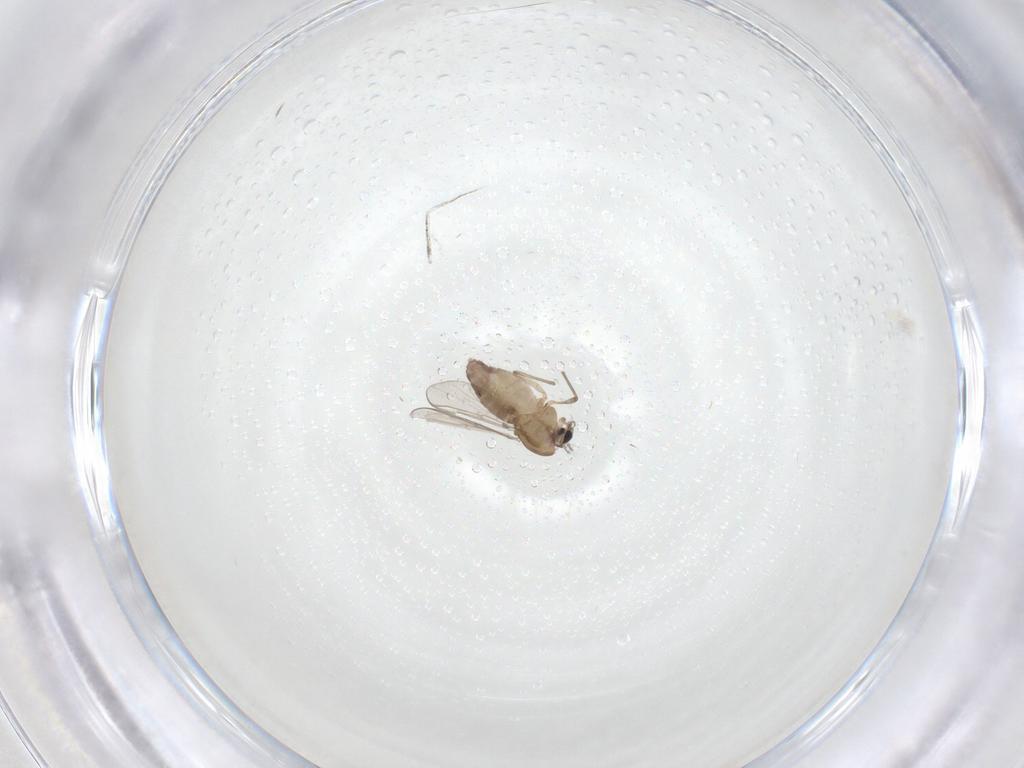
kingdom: Animalia
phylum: Arthropoda
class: Insecta
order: Diptera
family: Chironomidae
